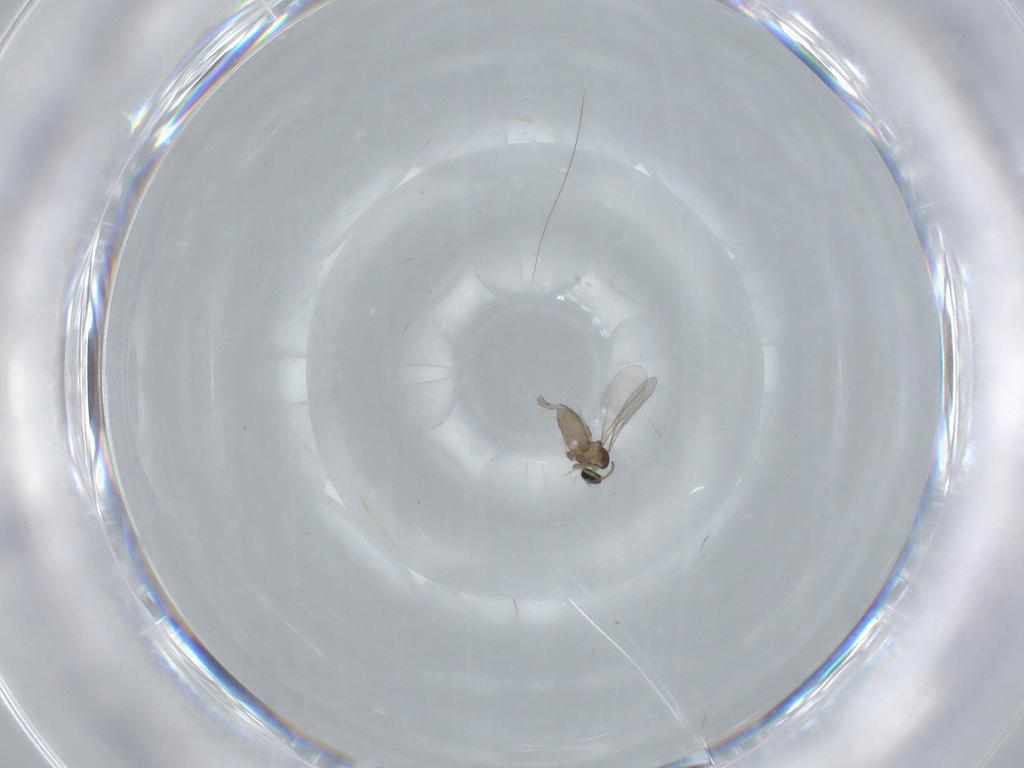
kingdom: Animalia
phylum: Arthropoda
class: Insecta
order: Diptera
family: Cecidomyiidae
